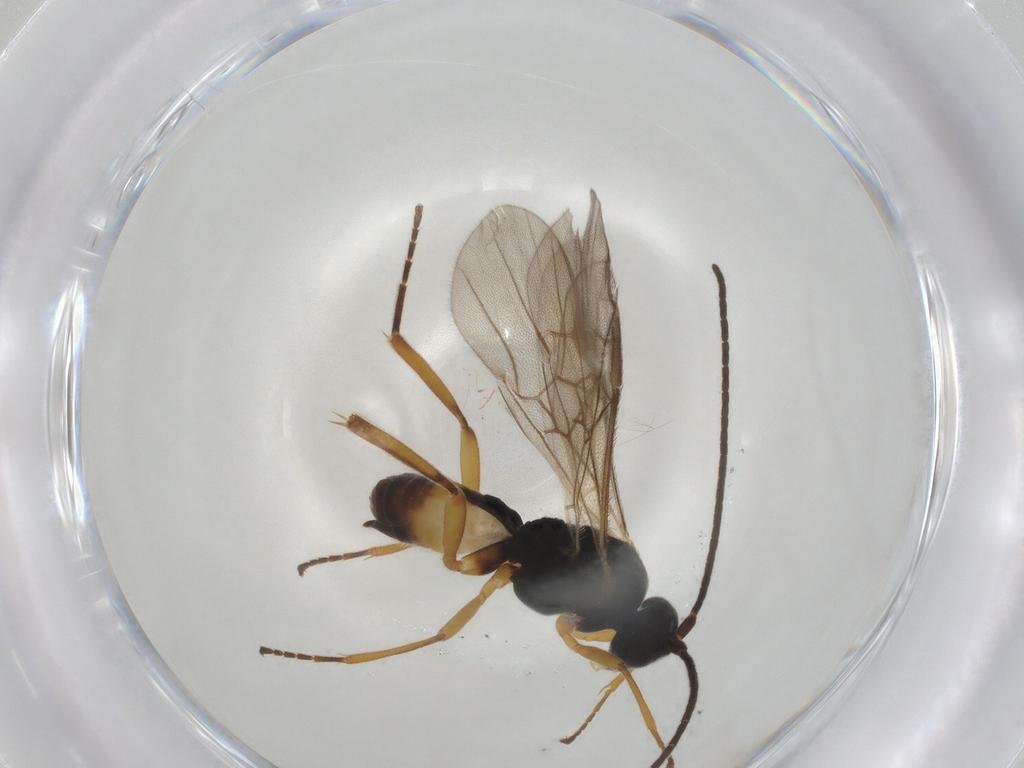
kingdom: Animalia
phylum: Arthropoda
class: Insecta
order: Hymenoptera
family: Braconidae
